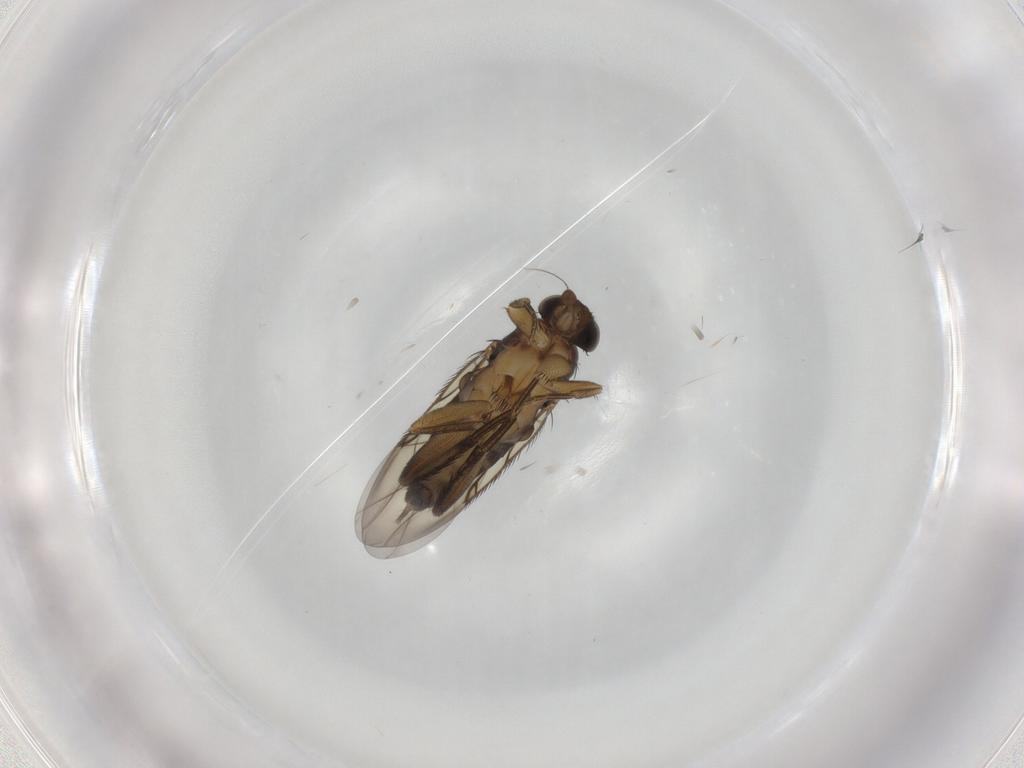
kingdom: Animalia
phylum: Arthropoda
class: Insecta
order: Diptera
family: Phoridae
